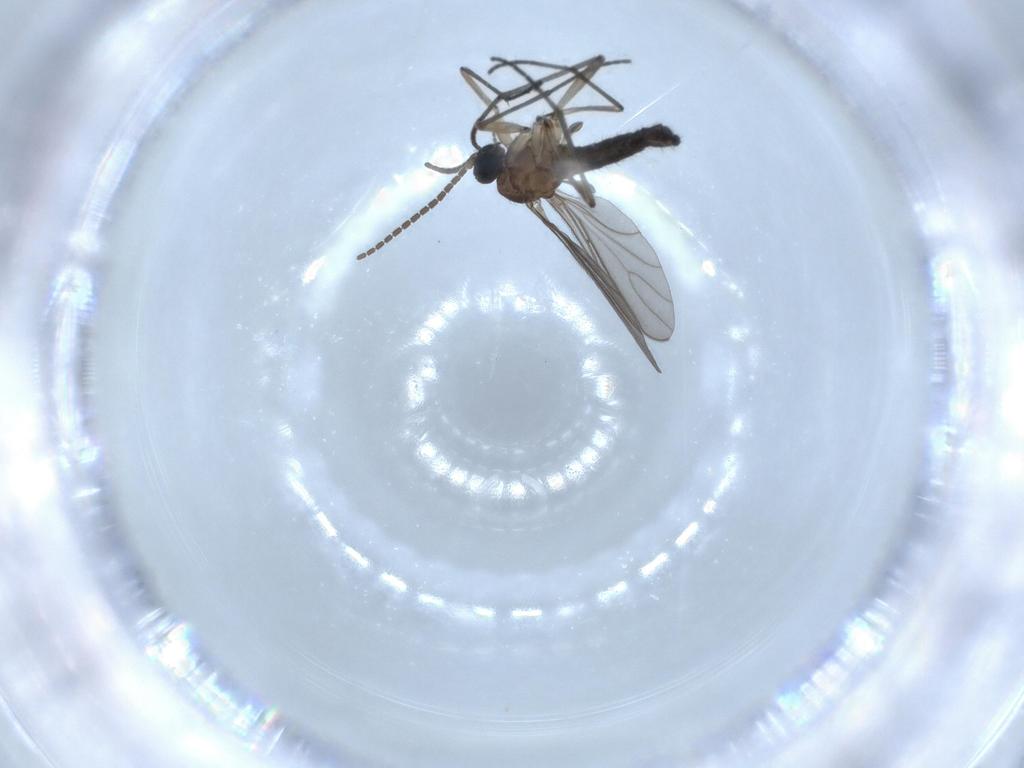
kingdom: Animalia
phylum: Arthropoda
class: Insecta
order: Diptera
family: Sciaridae
